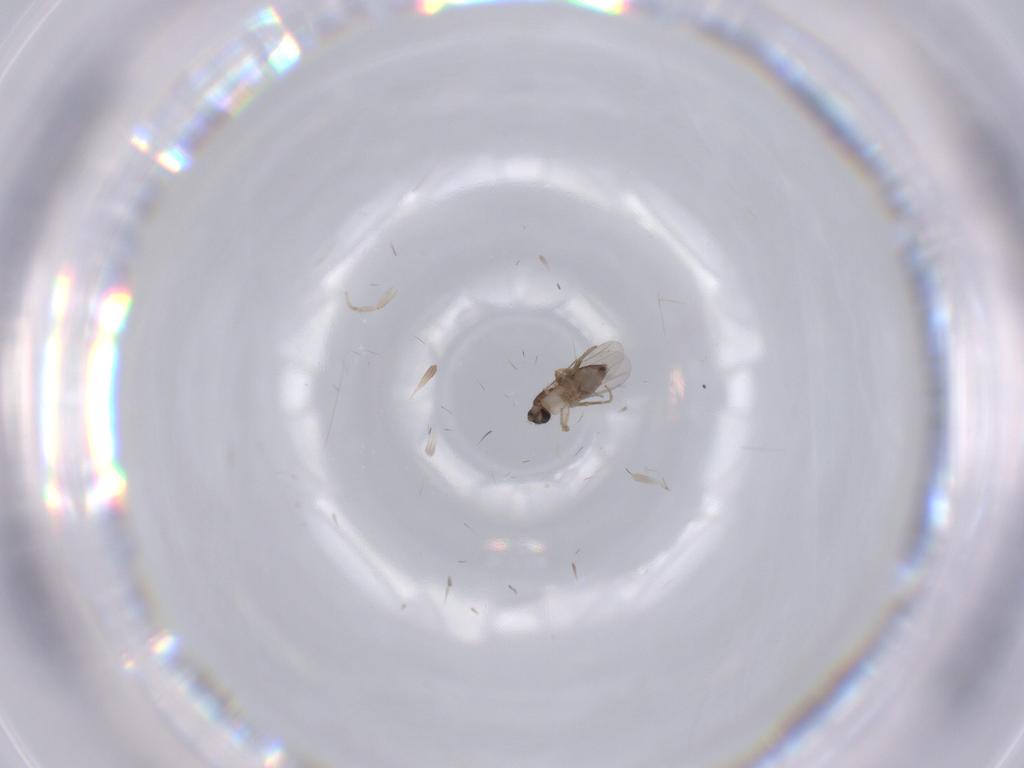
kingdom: Animalia
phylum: Arthropoda
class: Insecta
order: Diptera
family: Phoridae
